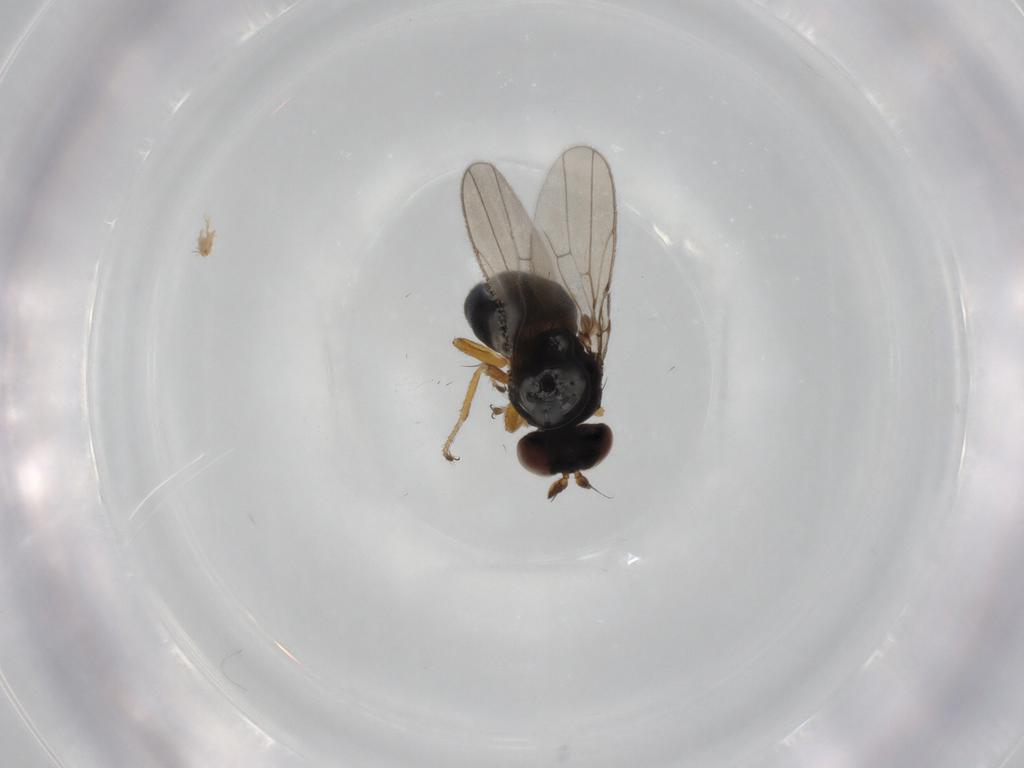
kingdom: Animalia
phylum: Arthropoda
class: Insecta
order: Diptera
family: Ephydridae
